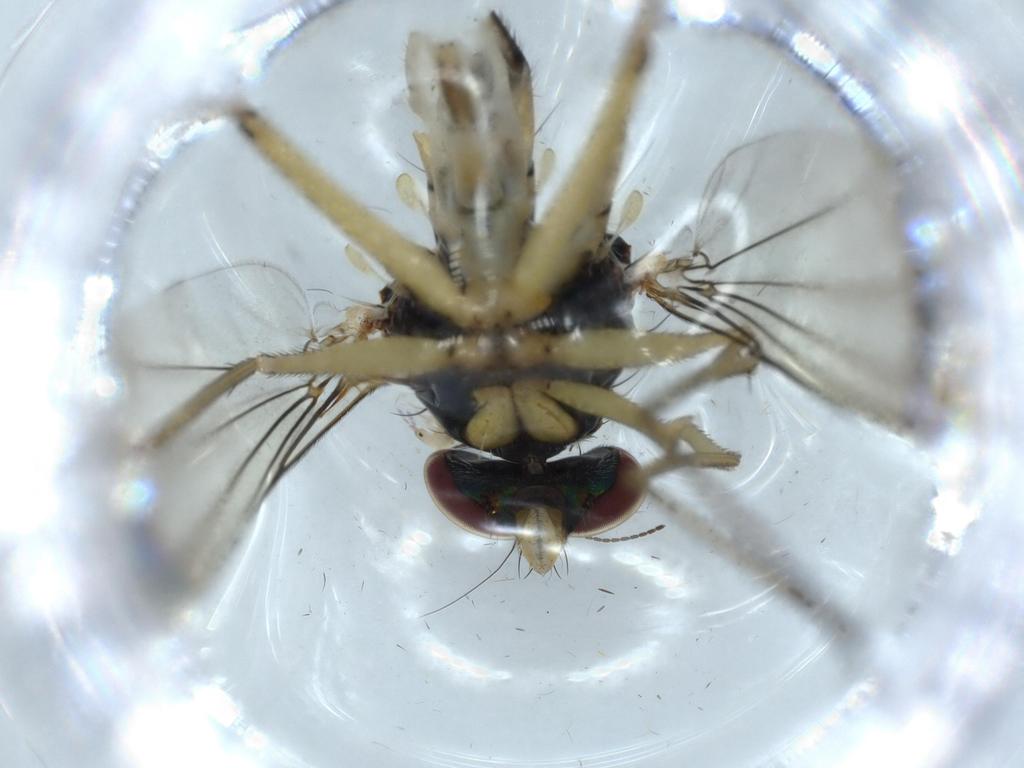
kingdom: Animalia
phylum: Arthropoda
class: Insecta
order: Diptera
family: Dolichopodidae
